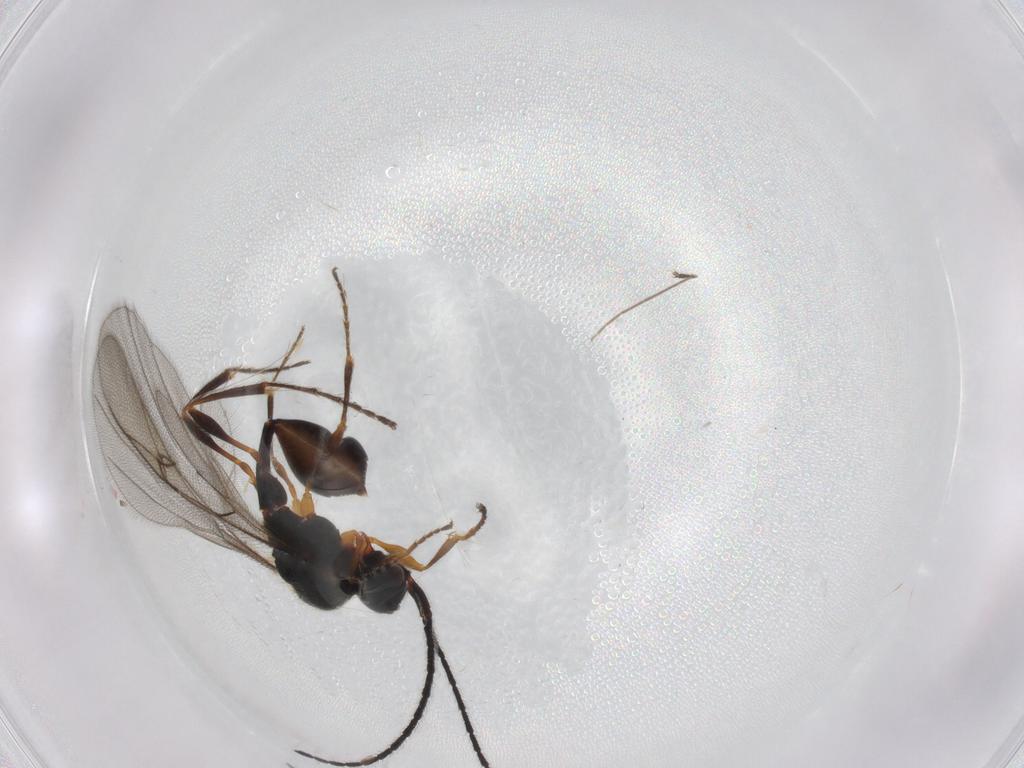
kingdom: Animalia
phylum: Arthropoda
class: Insecta
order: Hymenoptera
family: Diapriidae
